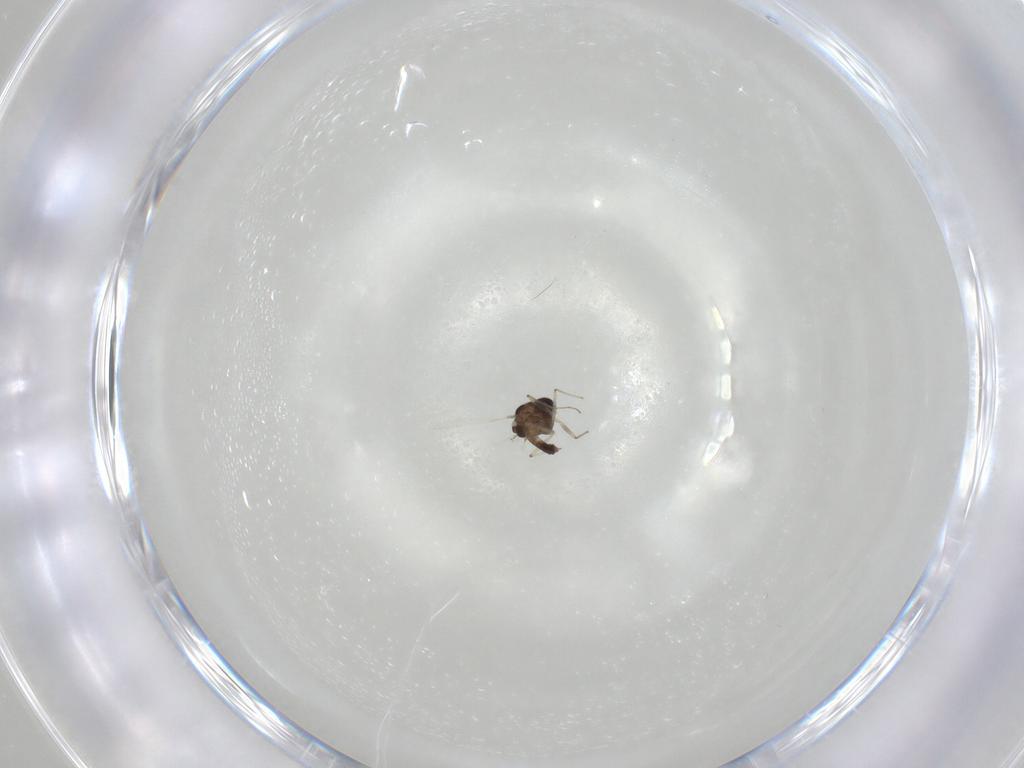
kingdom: Animalia
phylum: Arthropoda
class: Insecta
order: Diptera
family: Chironomidae
